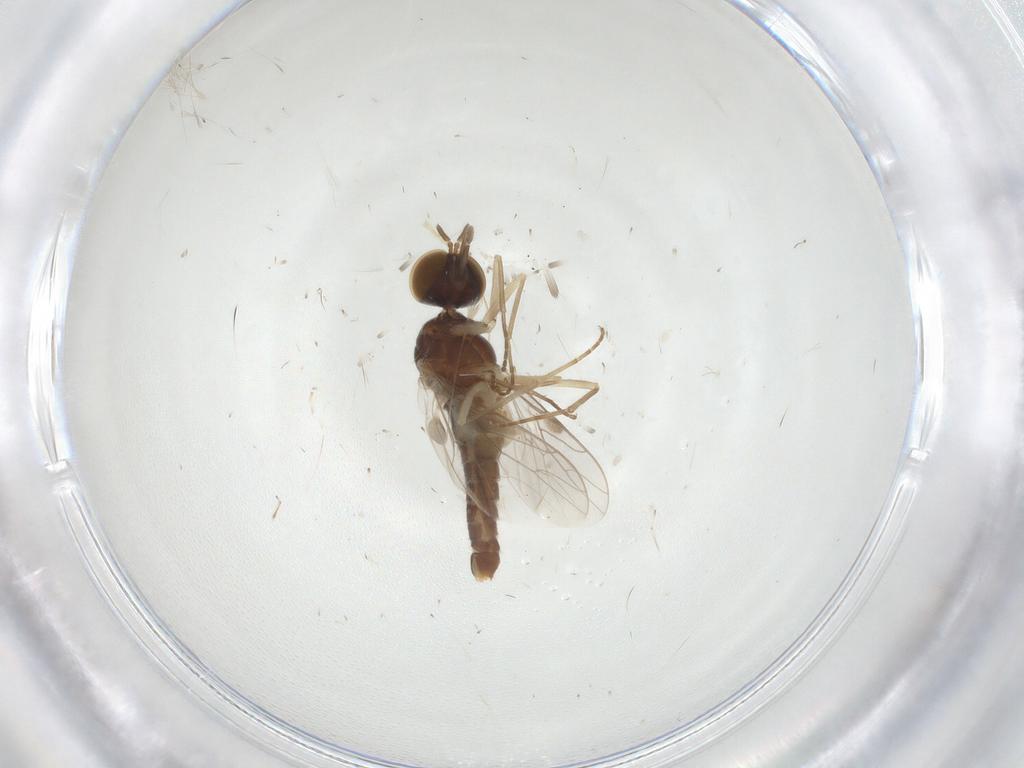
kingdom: Animalia
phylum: Arthropoda
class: Insecta
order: Diptera
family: Scenopinidae
